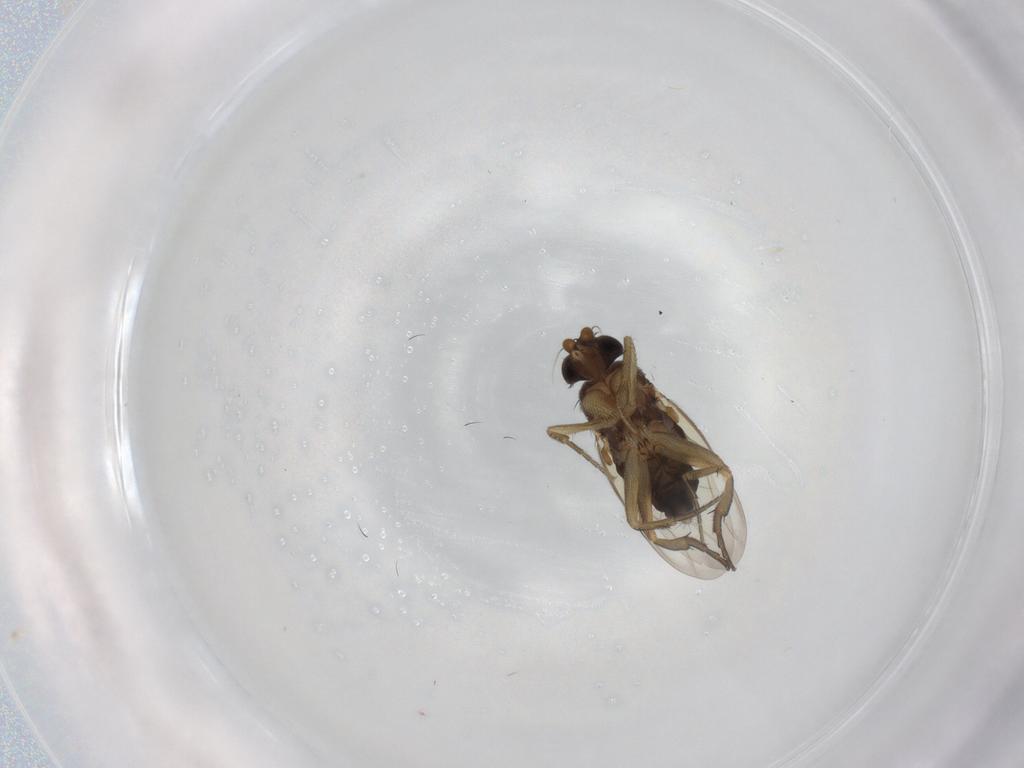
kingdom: Animalia
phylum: Arthropoda
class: Insecta
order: Diptera
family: Phoridae
